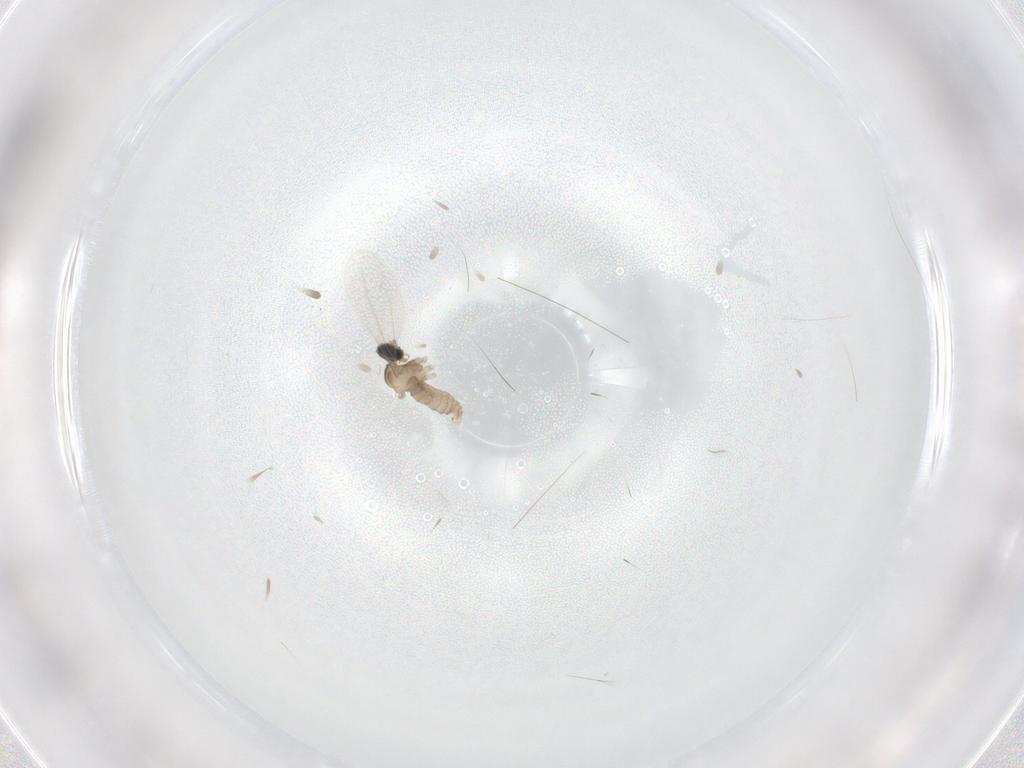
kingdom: Animalia
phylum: Arthropoda
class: Insecta
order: Diptera
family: Cecidomyiidae
